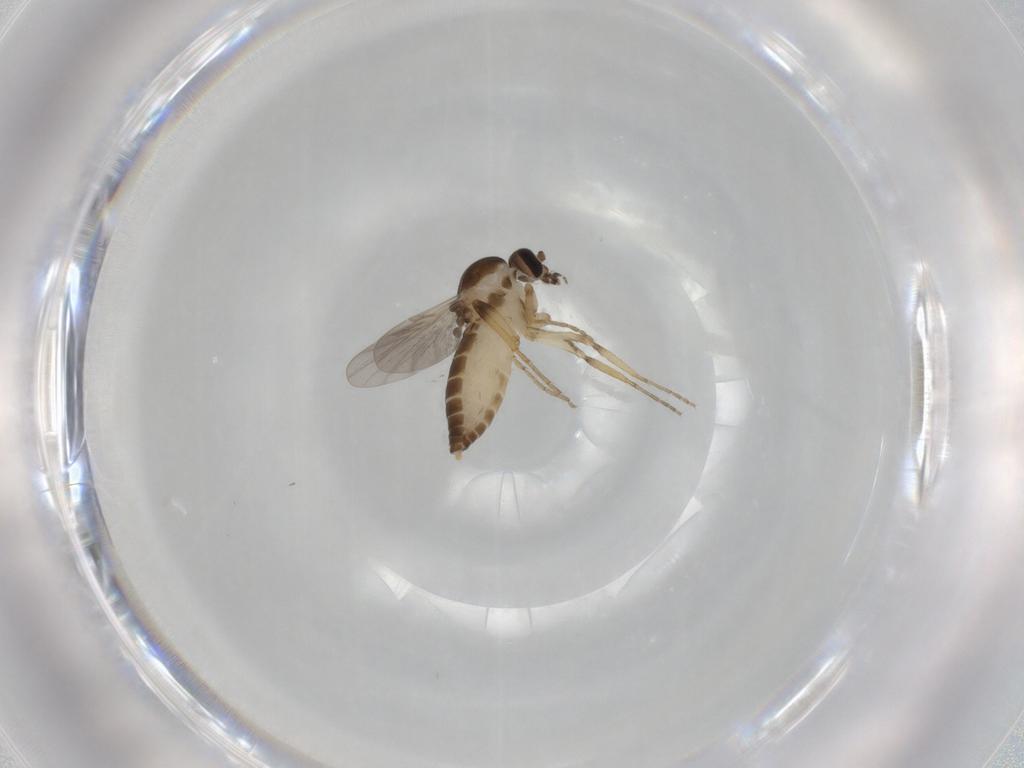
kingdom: Animalia
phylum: Arthropoda
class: Insecta
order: Diptera
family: Ceratopogonidae
